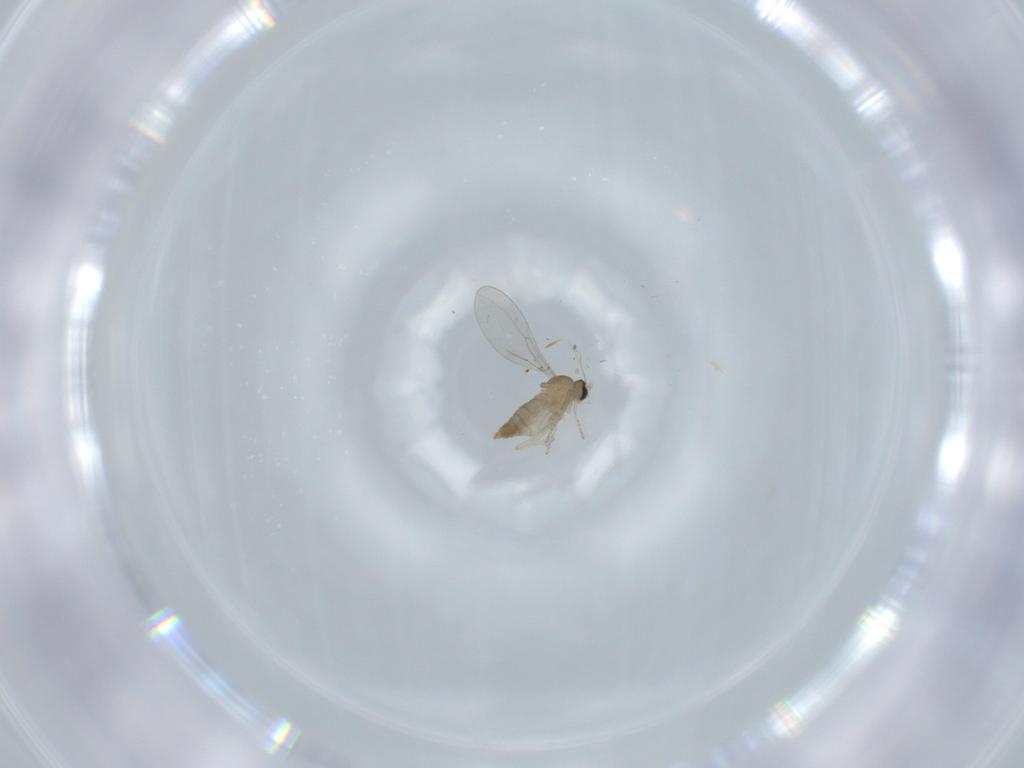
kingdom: Animalia
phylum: Arthropoda
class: Insecta
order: Diptera
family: Cecidomyiidae
